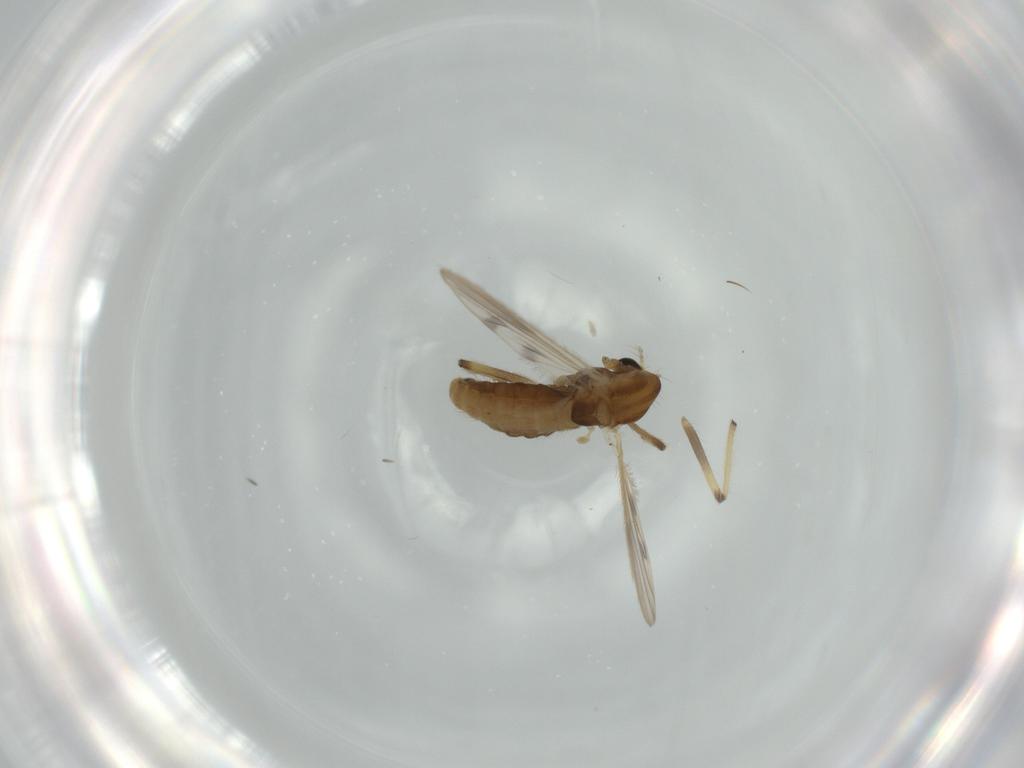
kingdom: Animalia
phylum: Arthropoda
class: Insecta
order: Diptera
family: Chironomidae
